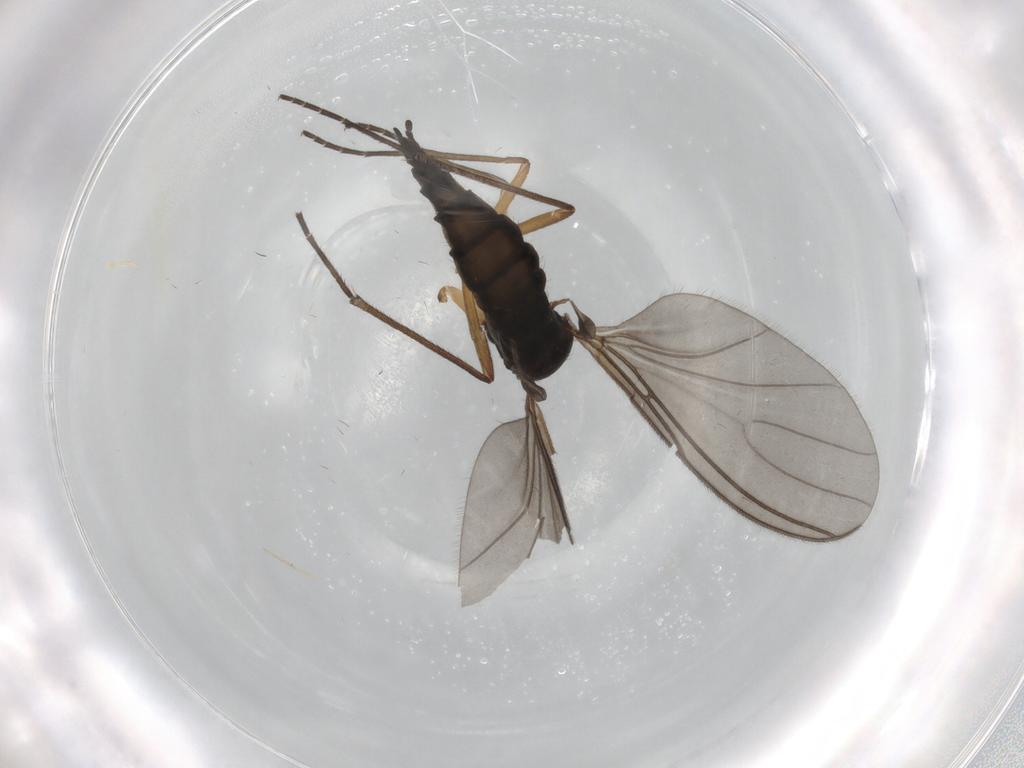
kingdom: Animalia
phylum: Arthropoda
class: Insecta
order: Diptera
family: Sciaridae
